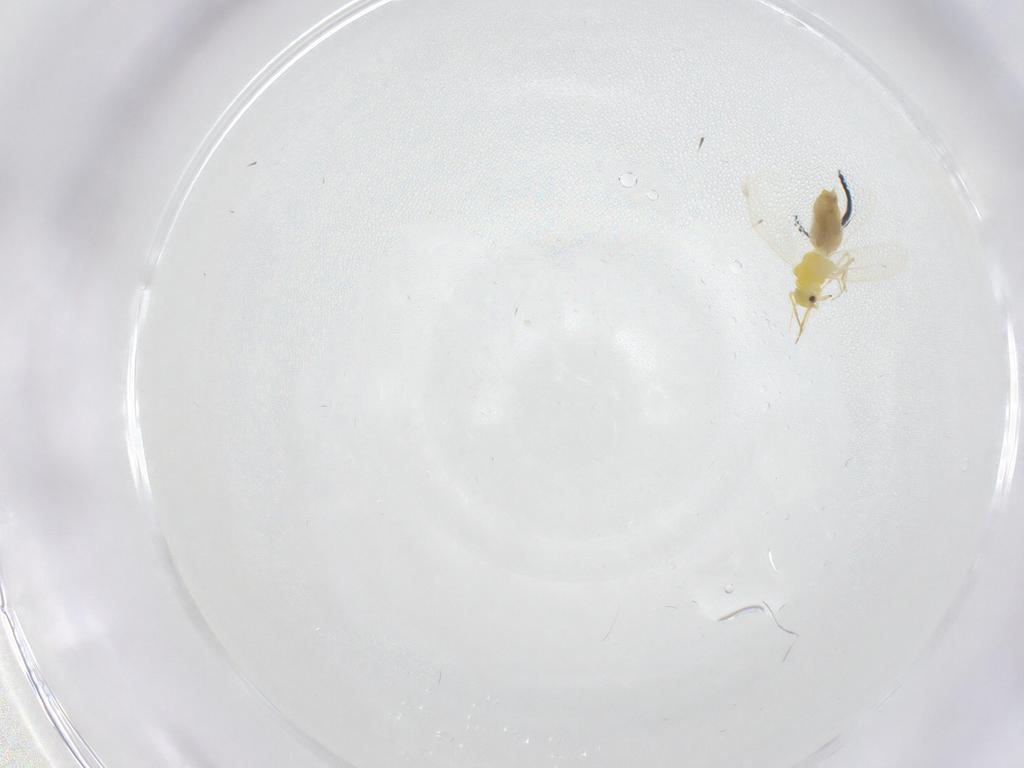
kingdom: Animalia
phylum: Arthropoda
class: Insecta
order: Hemiptera
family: Aleyrodidae
